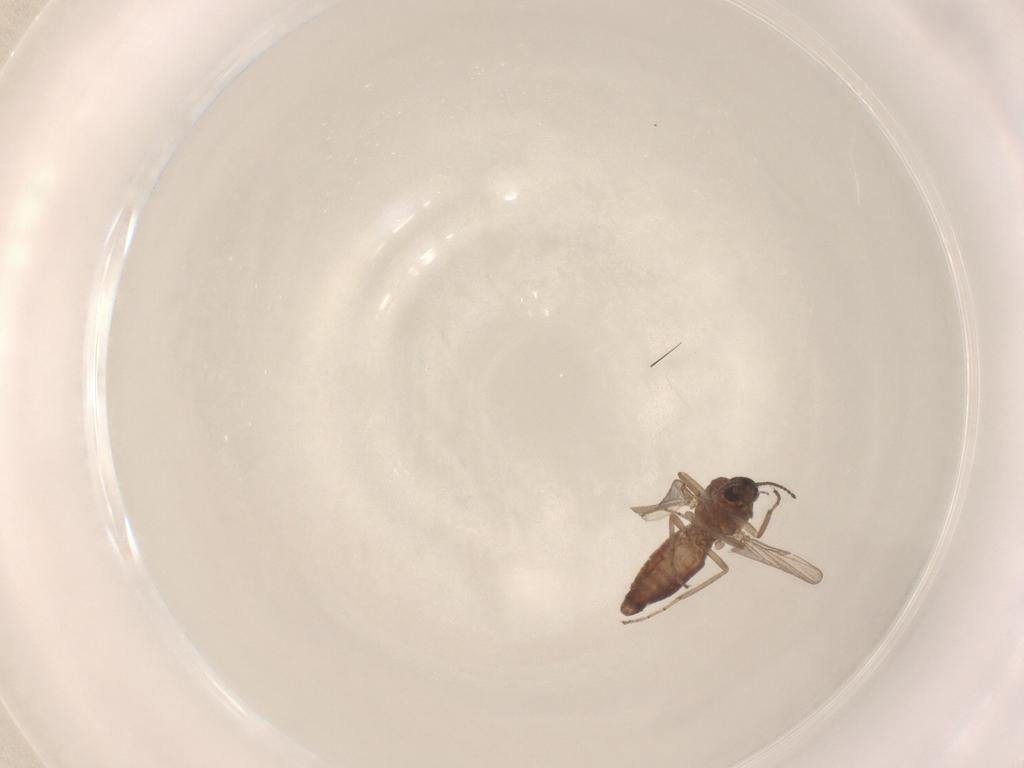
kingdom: Animalia
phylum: Arthropoda
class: Insecta
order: Diptera
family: Ceratopogonidae
